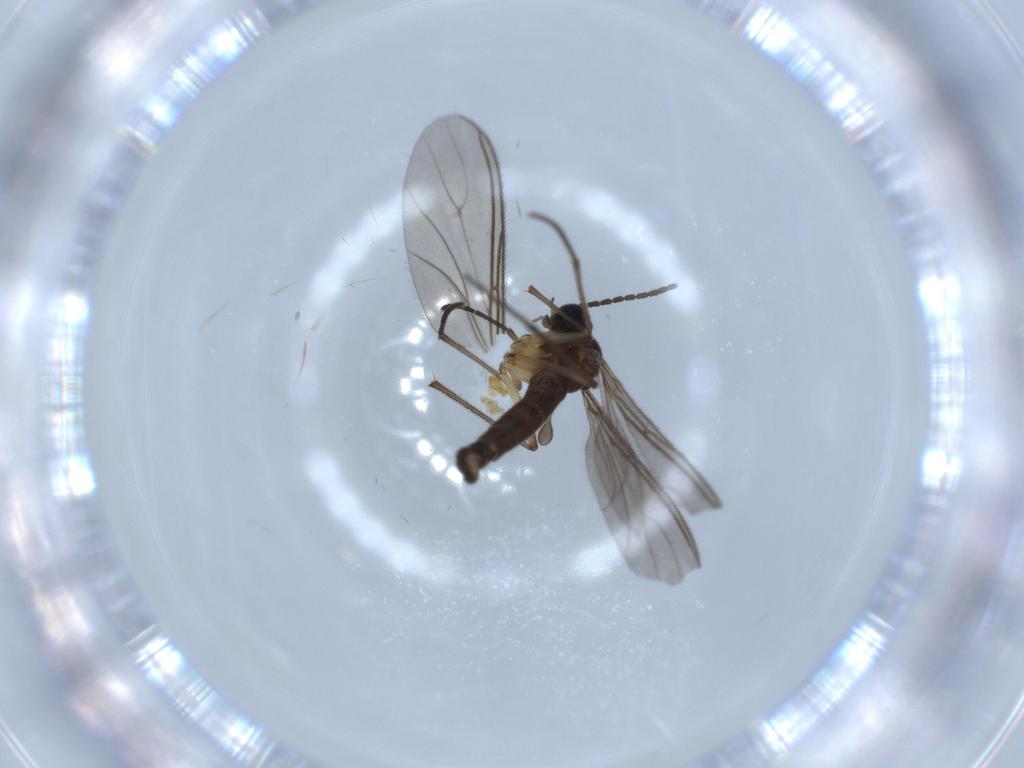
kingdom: Animalia
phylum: Arthropoda
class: Insecta
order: Diptera
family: Sciaridae
